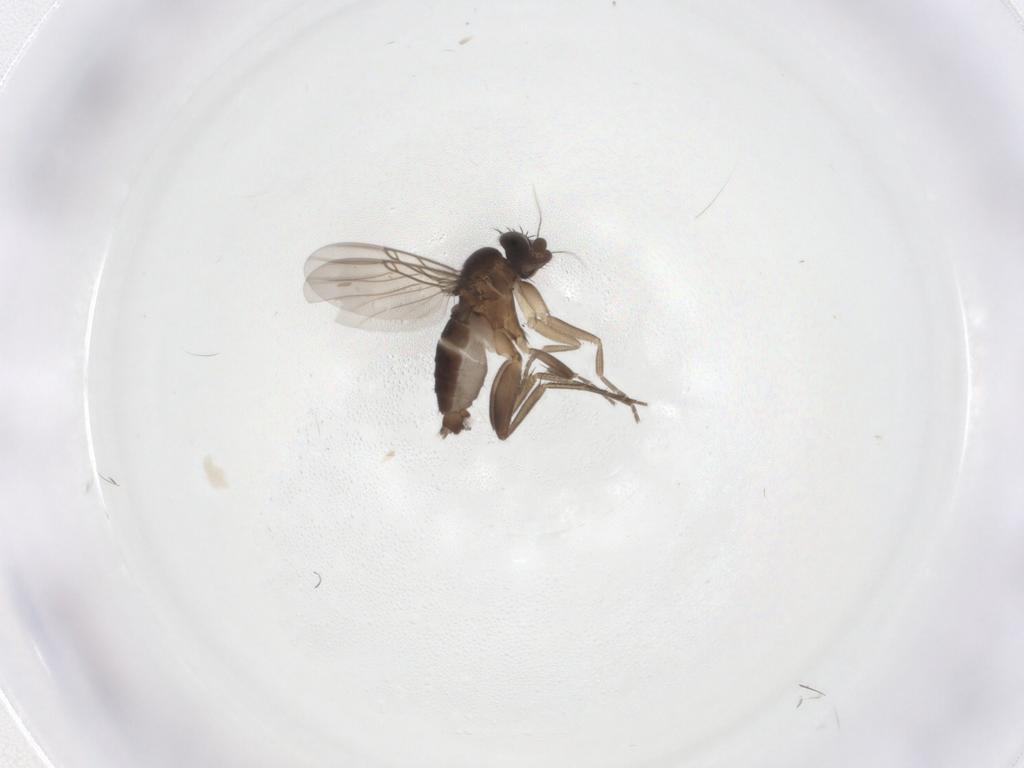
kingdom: Animalia
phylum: Arthropoda
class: Insecta
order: Diptera
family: Phoridae
